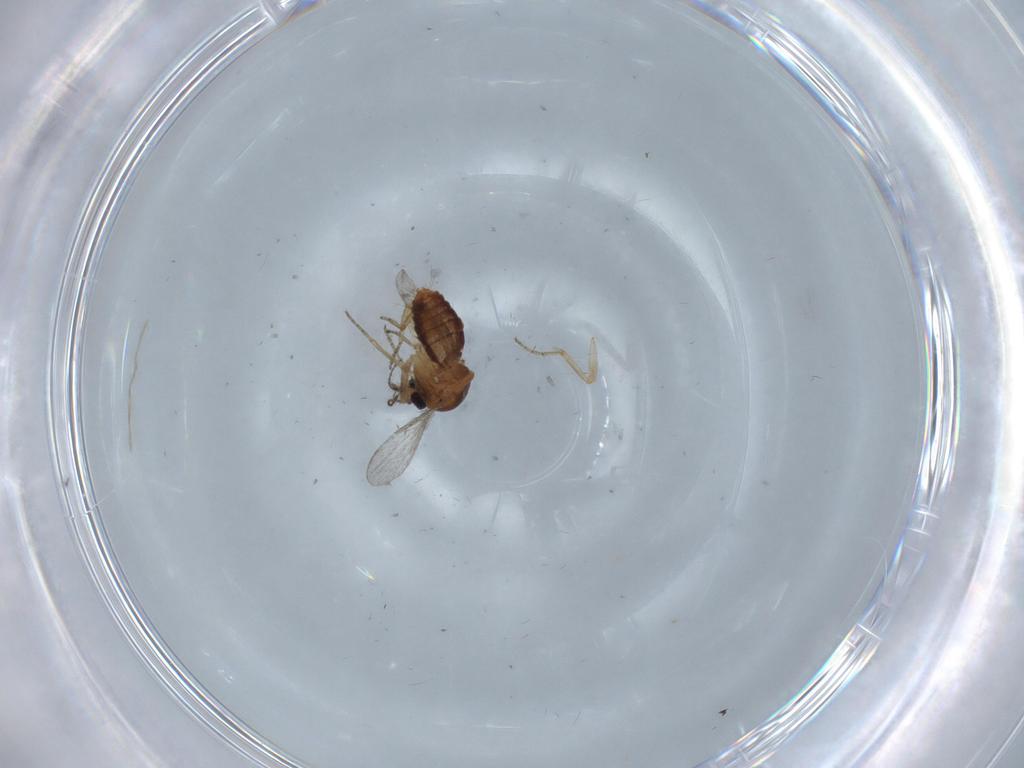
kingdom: Animalia
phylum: Arthropoda
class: Insecta
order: Diptera
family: Ceratopogonidae
